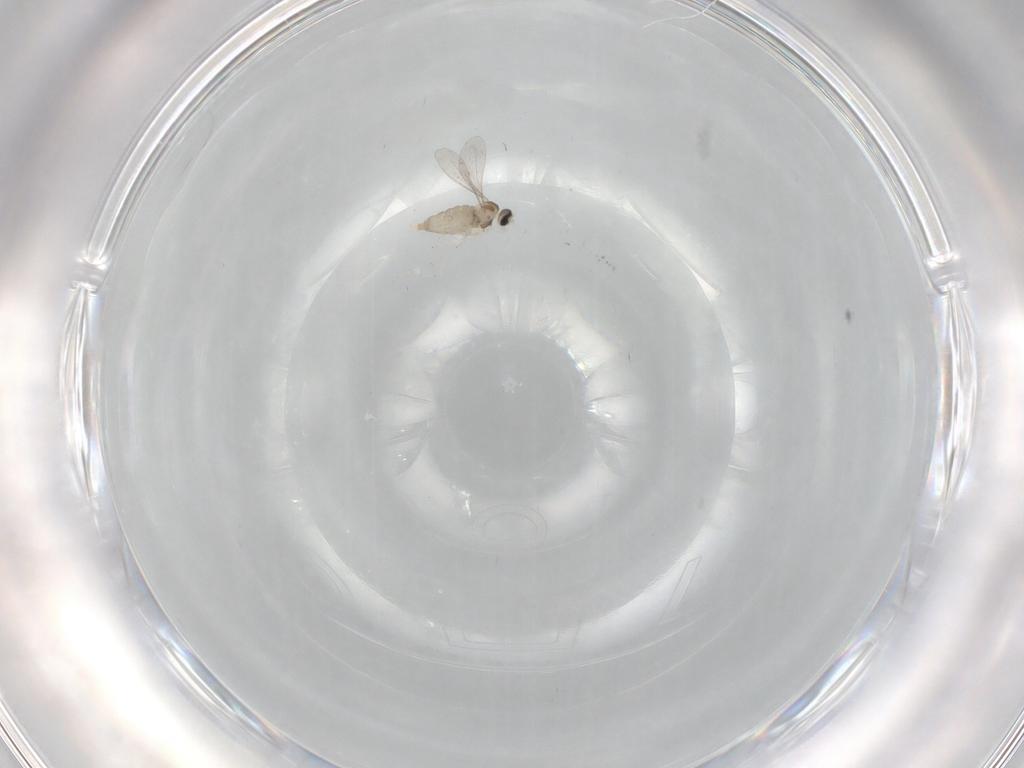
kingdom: Animalia
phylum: Arthropoda
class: Insecta
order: Diptera
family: Cecidomyiidae
